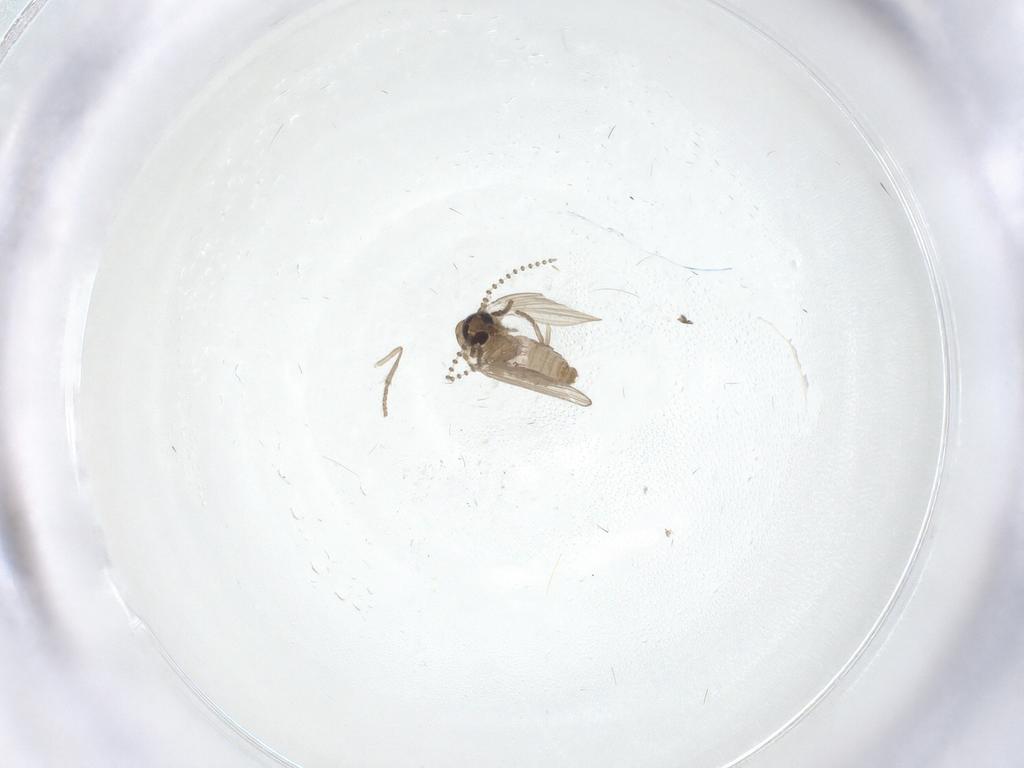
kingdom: Animalia
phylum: Arthropoda
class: Insecta
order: Diptera
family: Psychodidae
